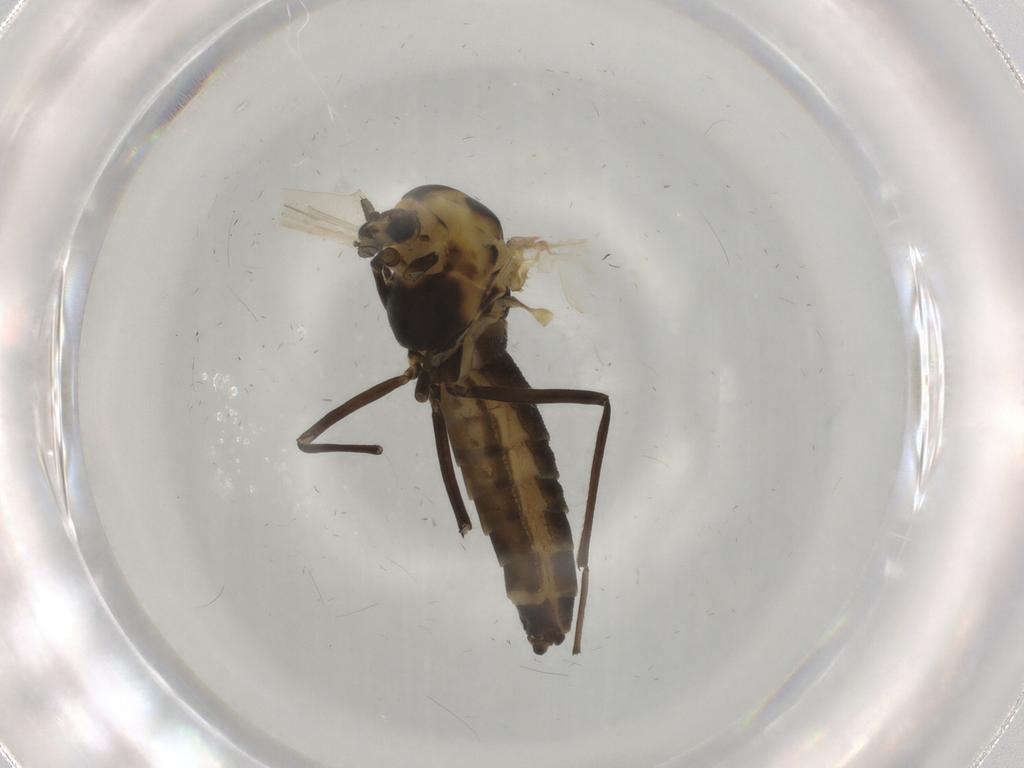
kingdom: Animalia
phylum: Arthropoda
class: Insecta
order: Diptera
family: Chironomidae
